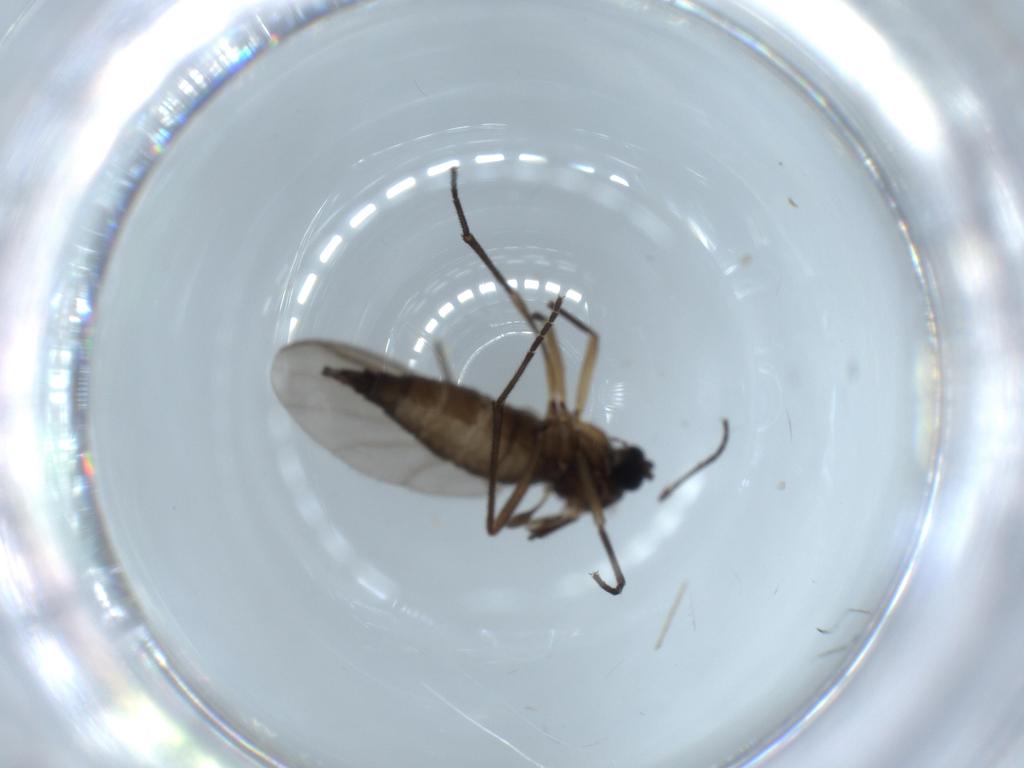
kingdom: Animalia
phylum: Arthropoda
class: Insecta
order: Diptera
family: Sciaridae
